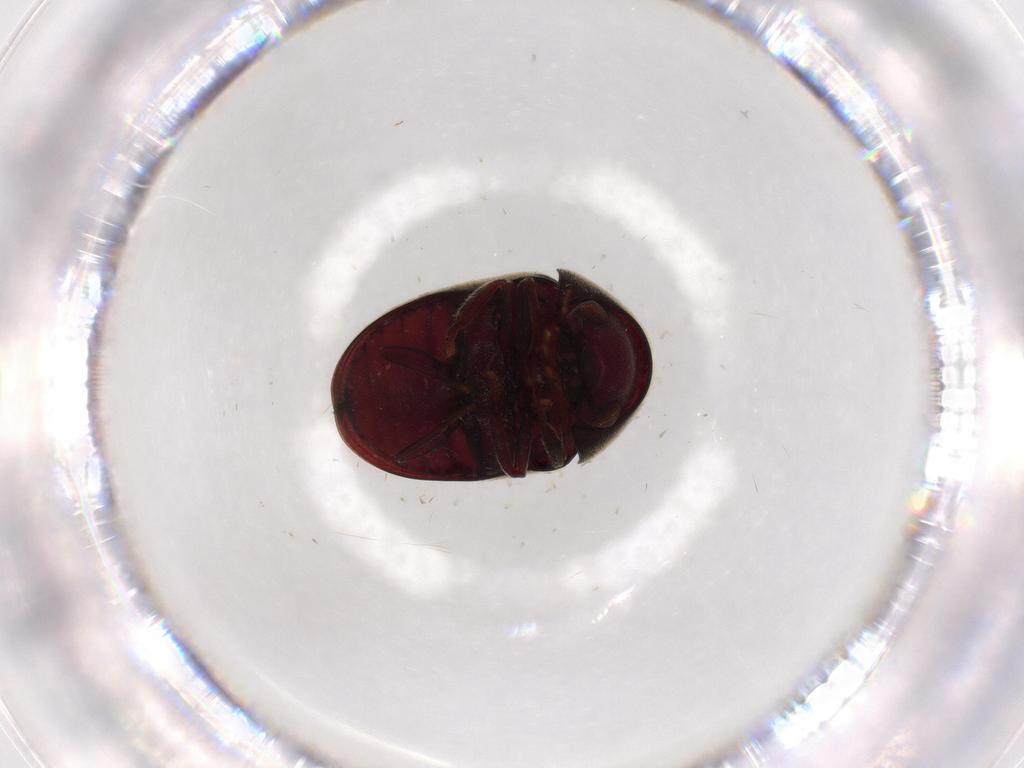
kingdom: Animalia
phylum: Arthropoda
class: Insecta
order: Coleoptera
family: Ptinidae
